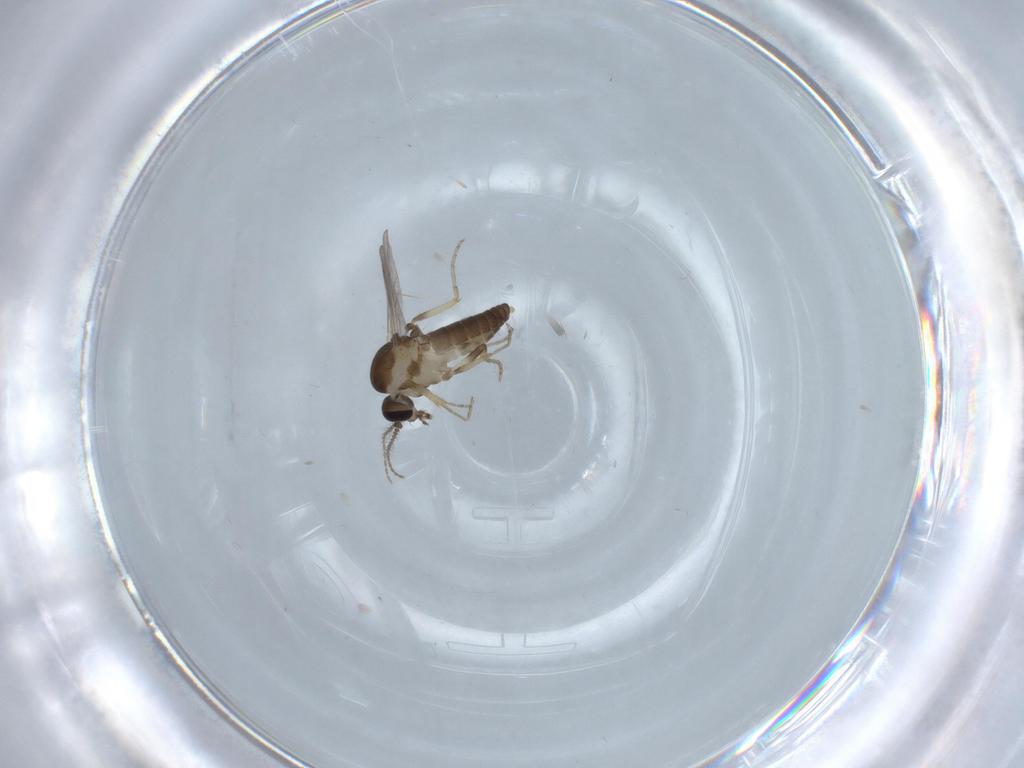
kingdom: Animalia
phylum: Arthropoda
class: Insecta
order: Diptera
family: Ceratopogonidae
